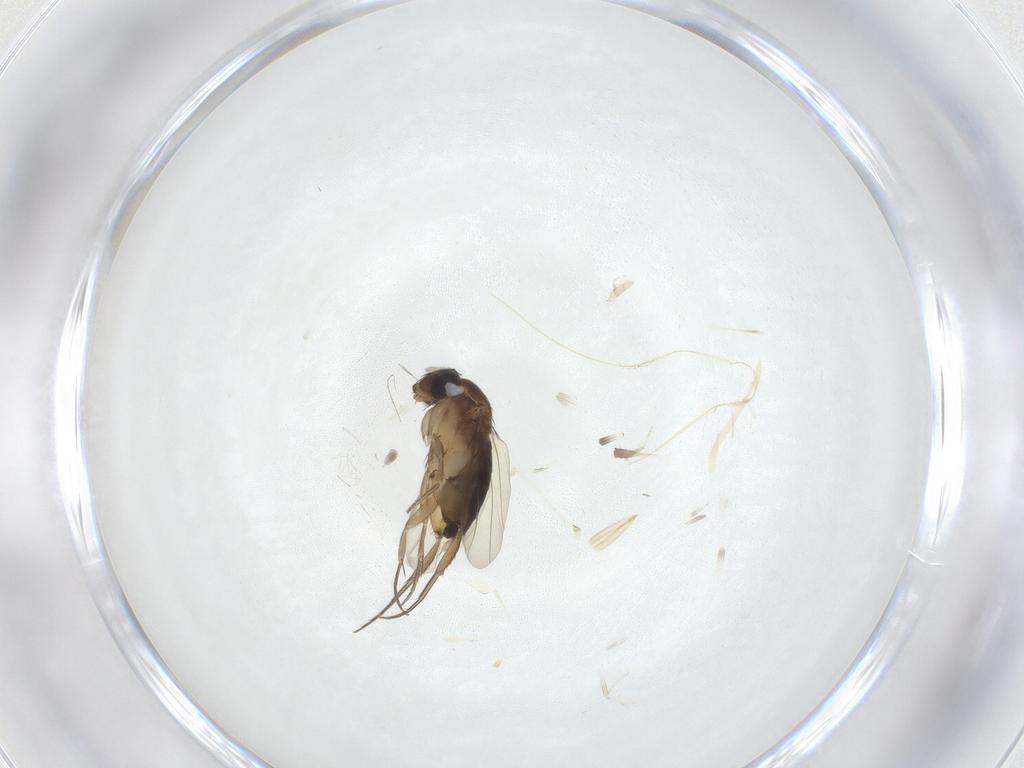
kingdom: Animalia
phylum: Arthropoda
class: Insecta
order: Diptera
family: Phoridae
